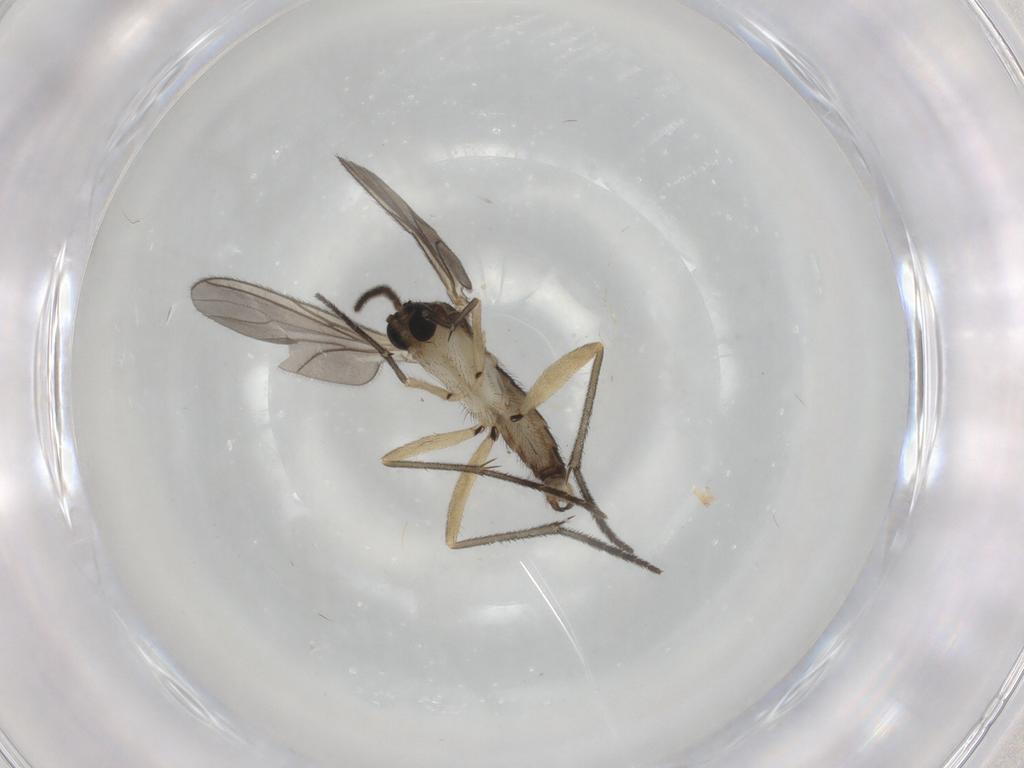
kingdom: Animalia
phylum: Arthropoda
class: Insecta
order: Diptera
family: Sciaridae
